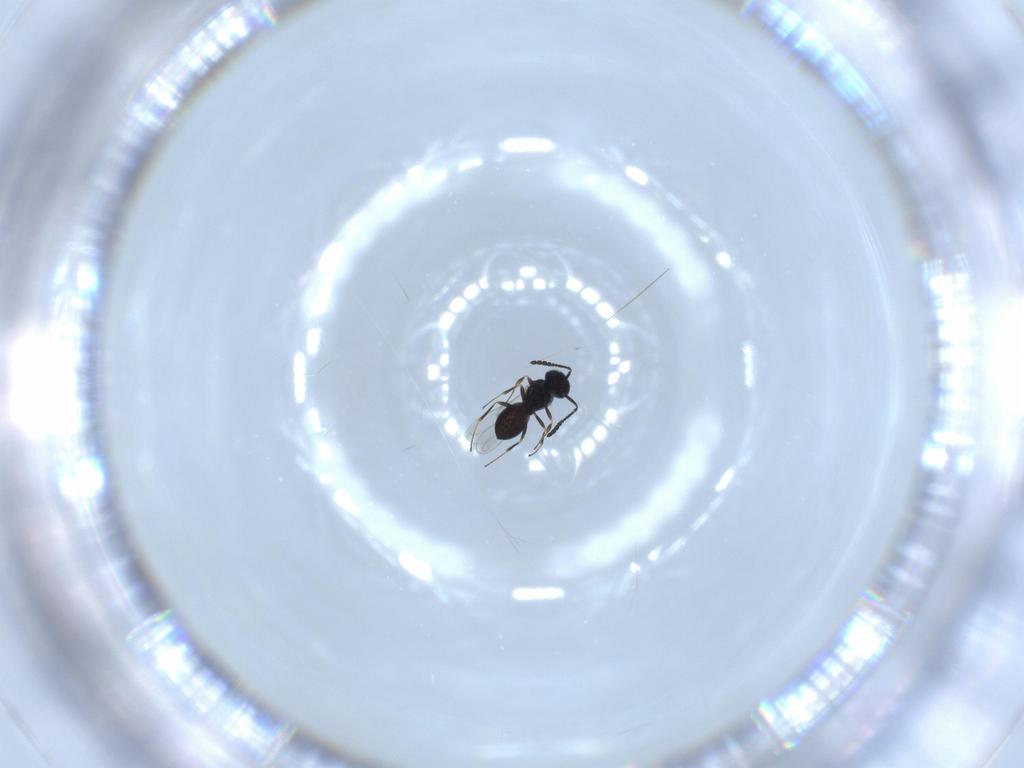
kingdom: Animalia
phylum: Arthropoda
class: Insecta
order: Hymenoptera
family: Scelionidae
